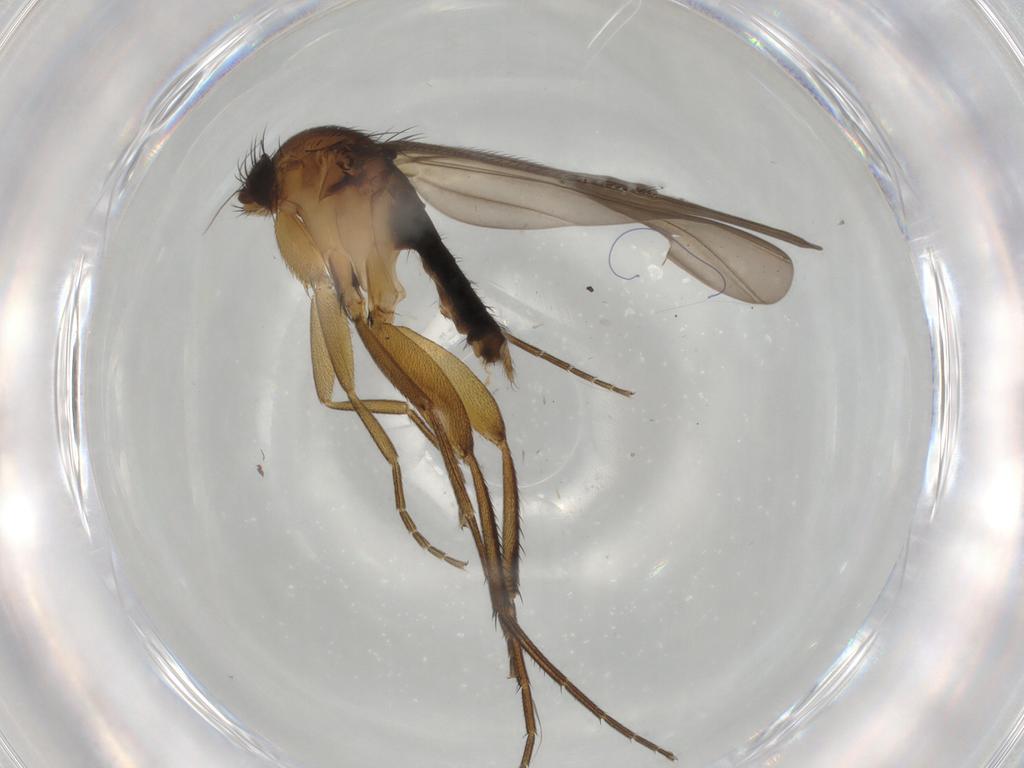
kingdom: Animalia
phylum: Arthropoda
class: Insecta
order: Diptera
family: Phoridae
